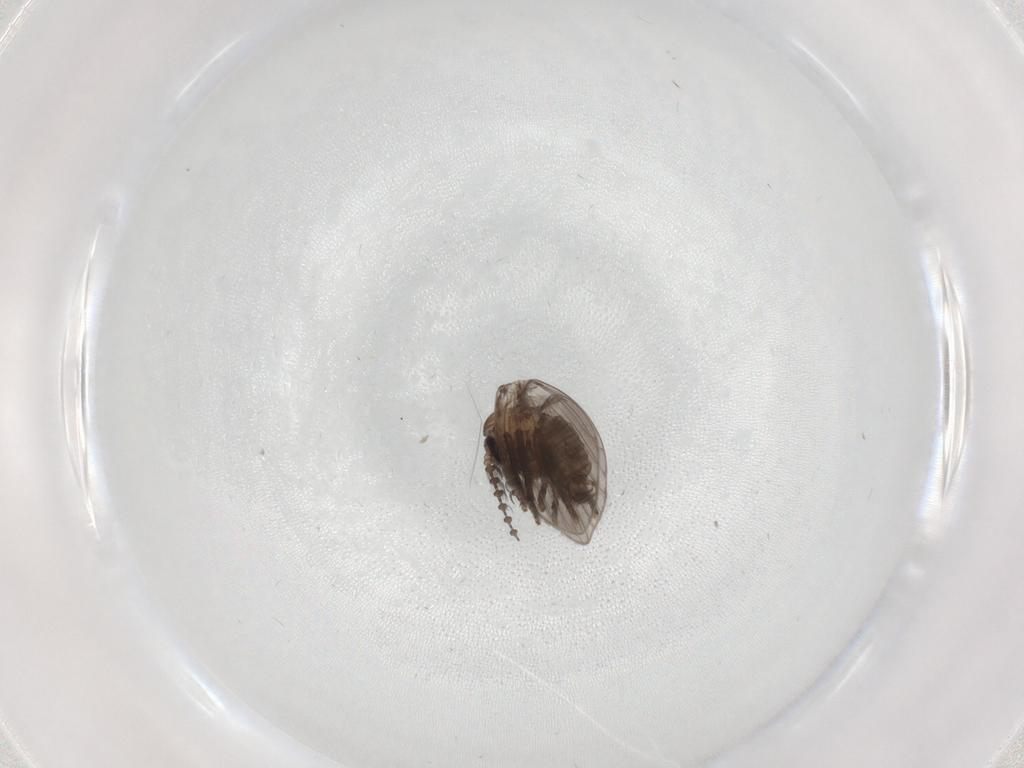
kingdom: Animalia
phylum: Arthropoda
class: Insecta
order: Diptera
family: Psychodidae
